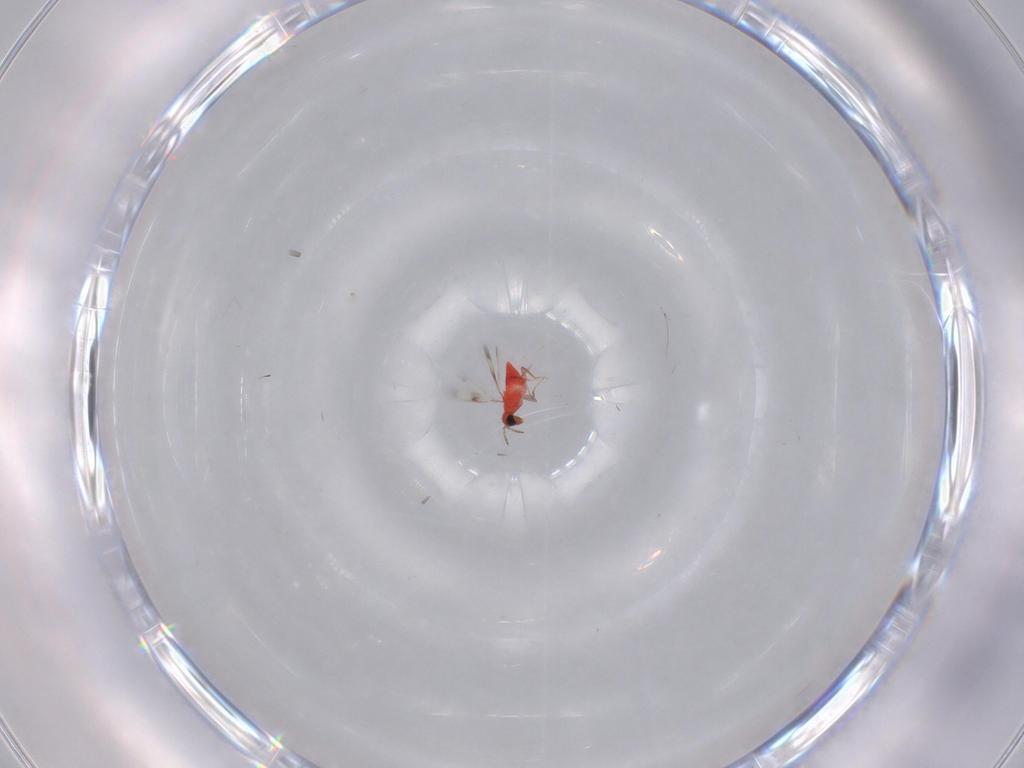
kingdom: Animalia
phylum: Arthropoda
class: Insecta
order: Hymenoptera
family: Trichogrammatidae
